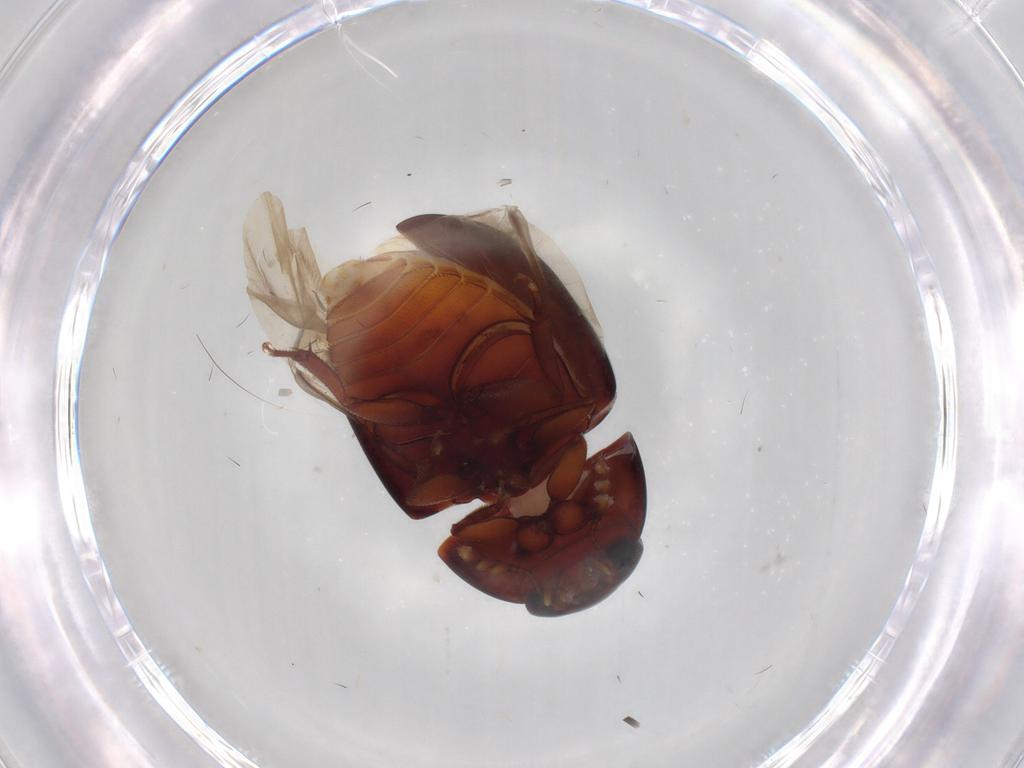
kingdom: Animalia
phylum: Arthropoda
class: Insecta
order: Coleoptera
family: Ptilodactylidae
